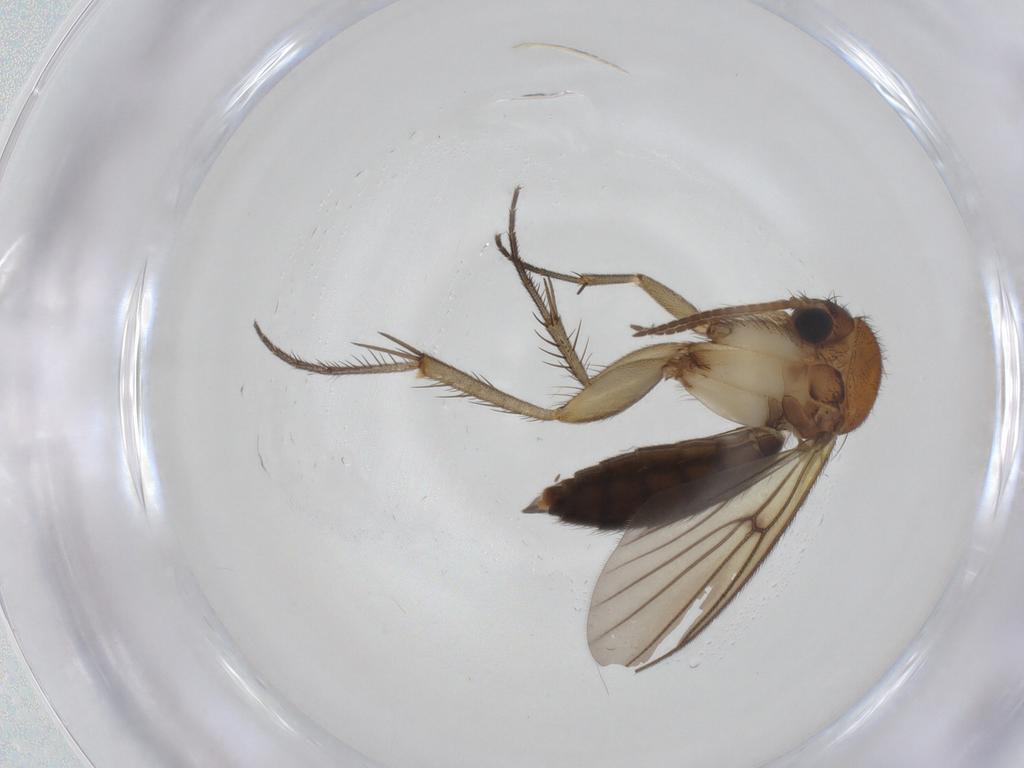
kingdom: Animalia
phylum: Arthropoda
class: Insecta
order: Diptera
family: Mycetophilidae
